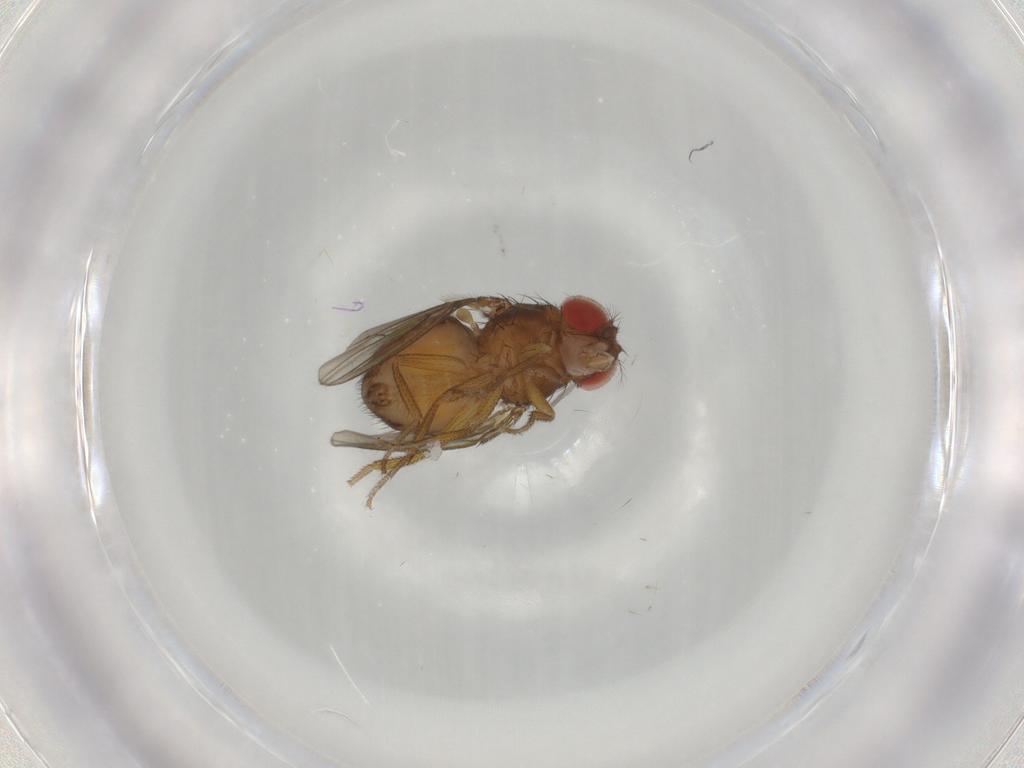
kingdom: Animalia
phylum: Arthropoda
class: Insecta
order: Diptera
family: Drosophilidae
